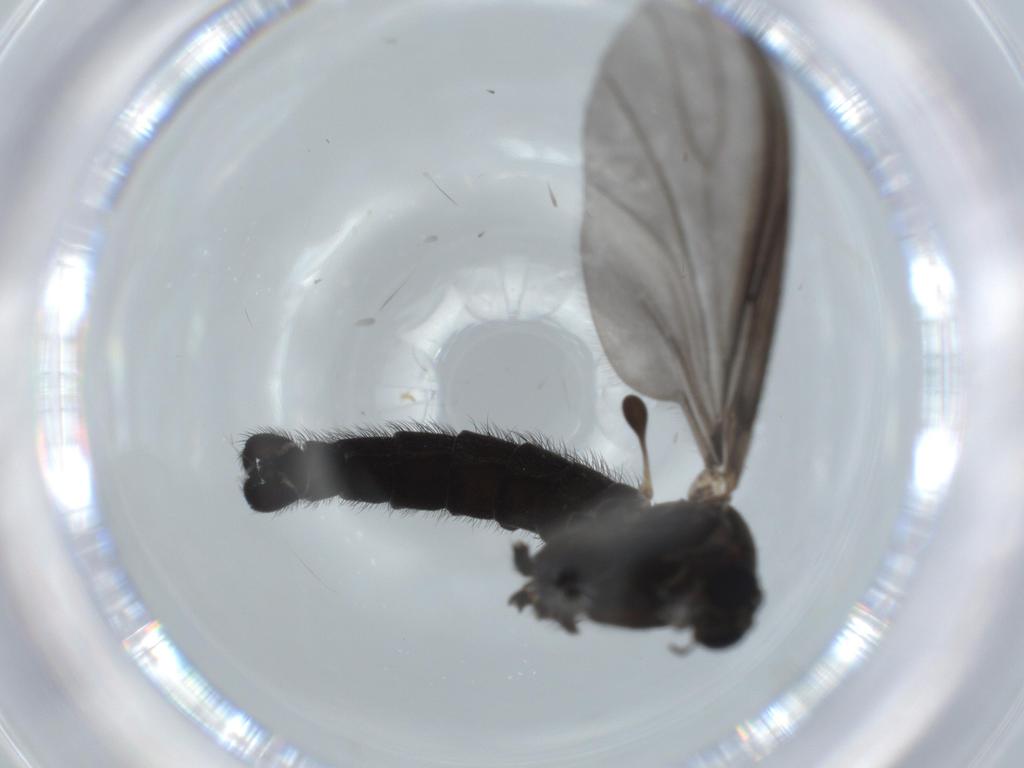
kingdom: Animalia
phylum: Arthropoda
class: Insecta
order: Diptera
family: Sciaridae
